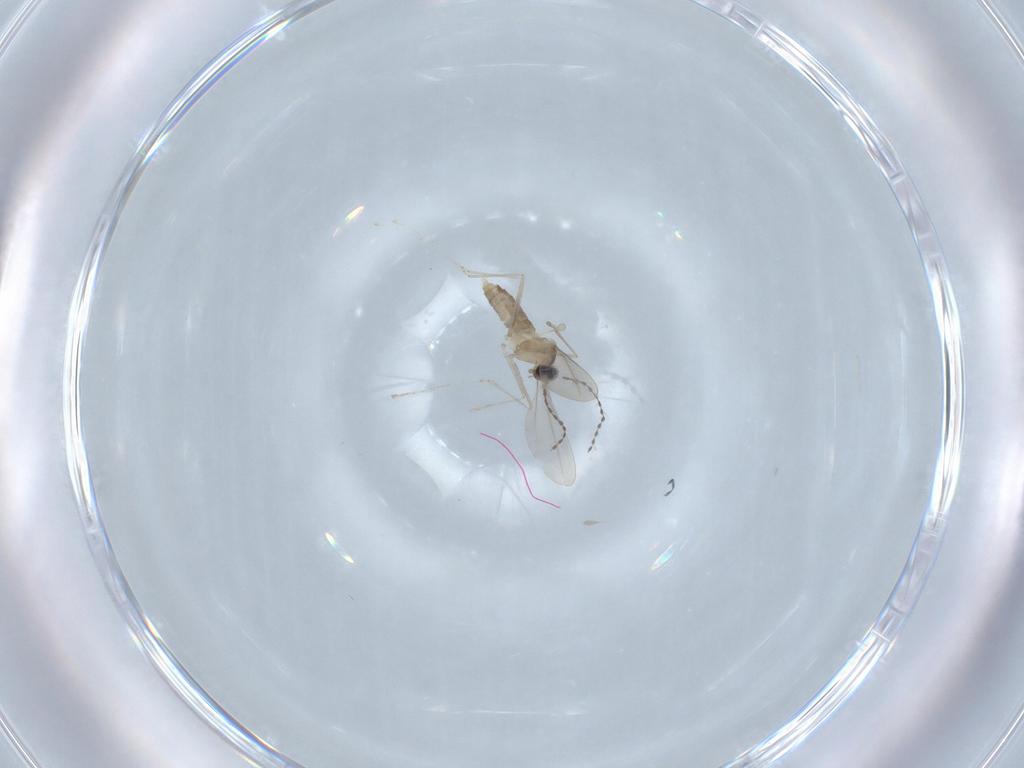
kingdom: Animalia
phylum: Arthropoda
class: Insecta
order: Diptera
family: Cecidomyiidae
